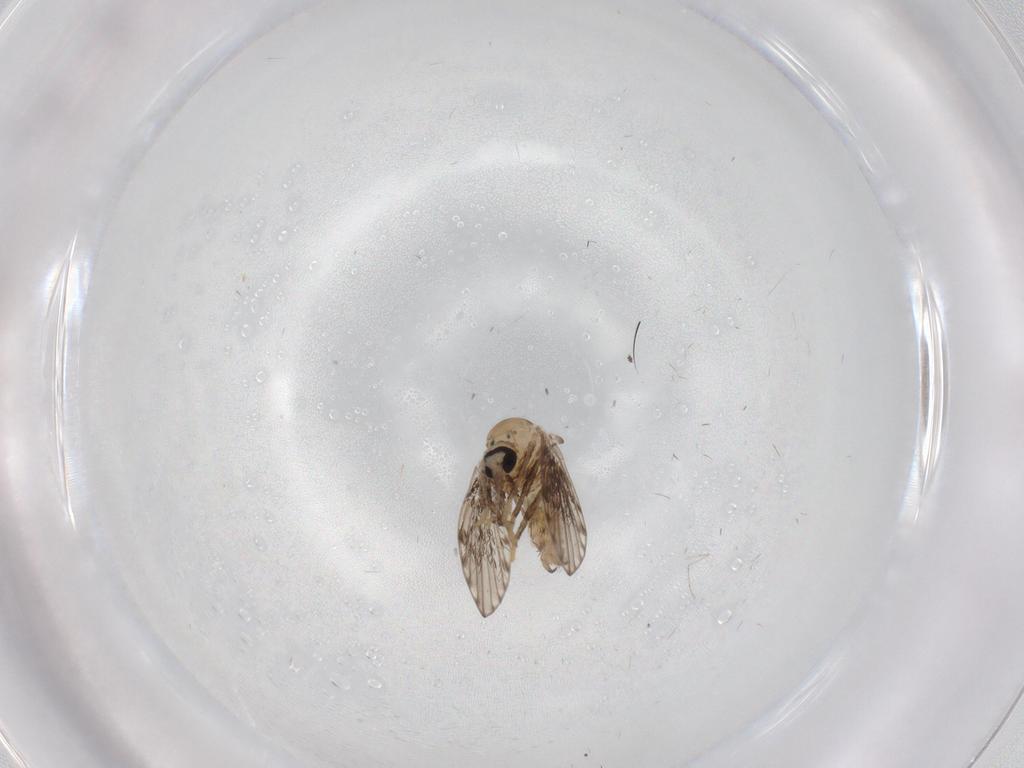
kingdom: Animalia
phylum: Arthropoda
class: Insecta
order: Diptera
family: Psychodidae
